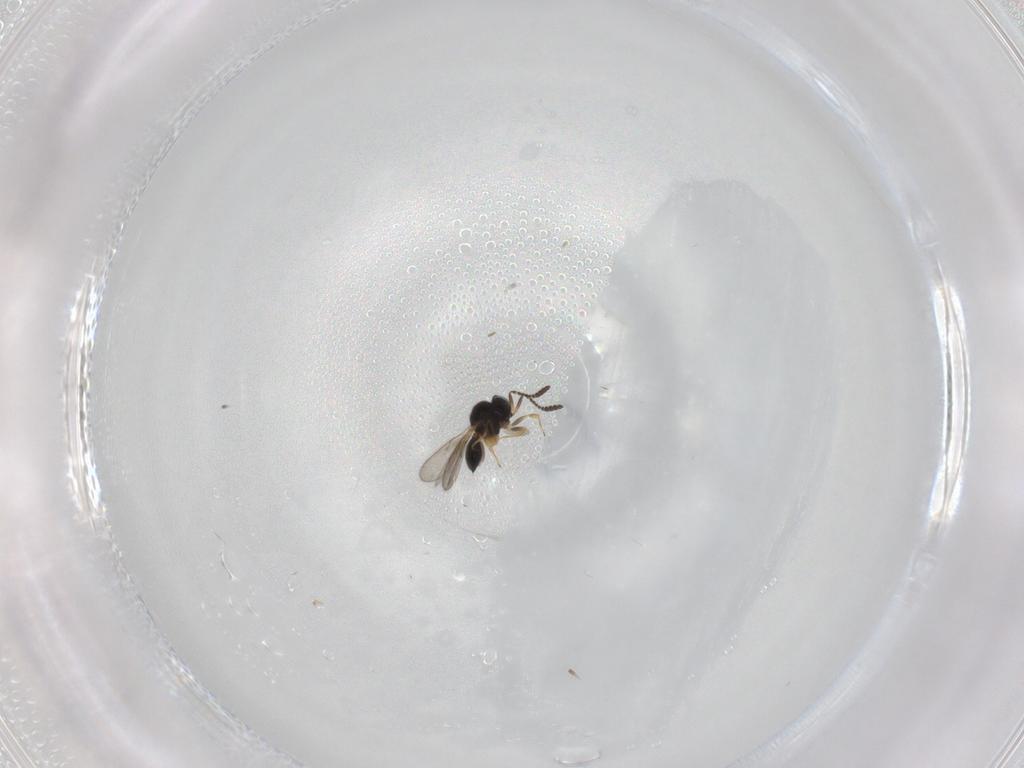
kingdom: Animalia
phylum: Arthropoda
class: Insecta
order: Hymenoptera
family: Scelionidae
